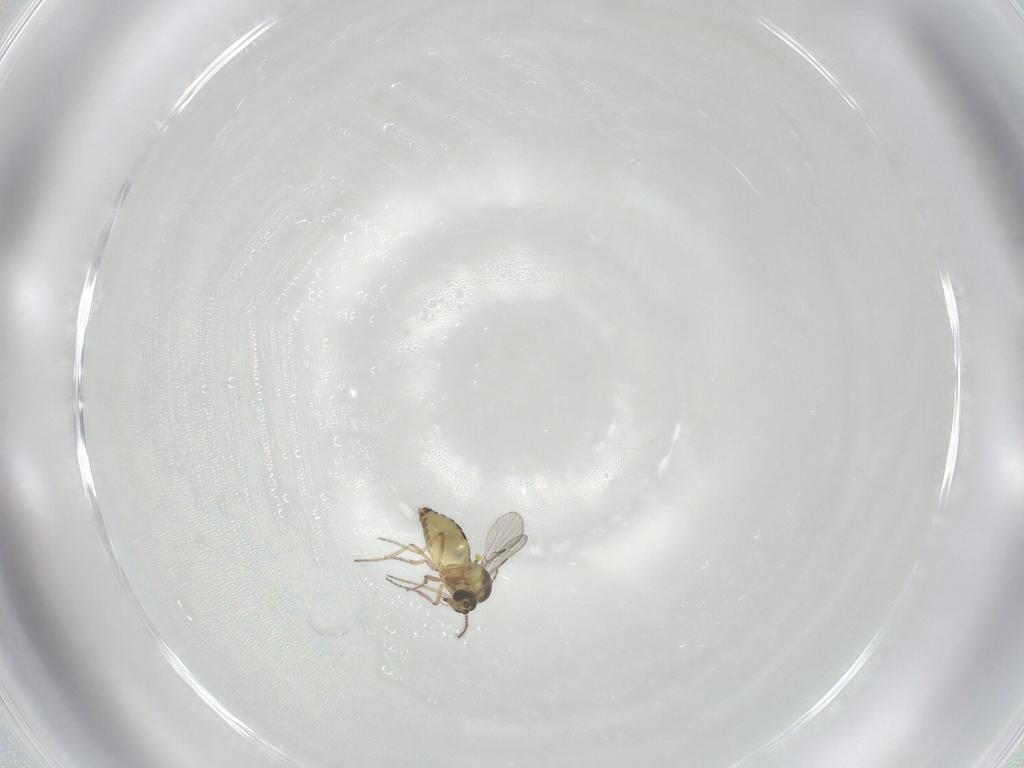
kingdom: Animalia
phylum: Arthropoda
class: Insecta
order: Diptera
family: Ceratopogonidae
